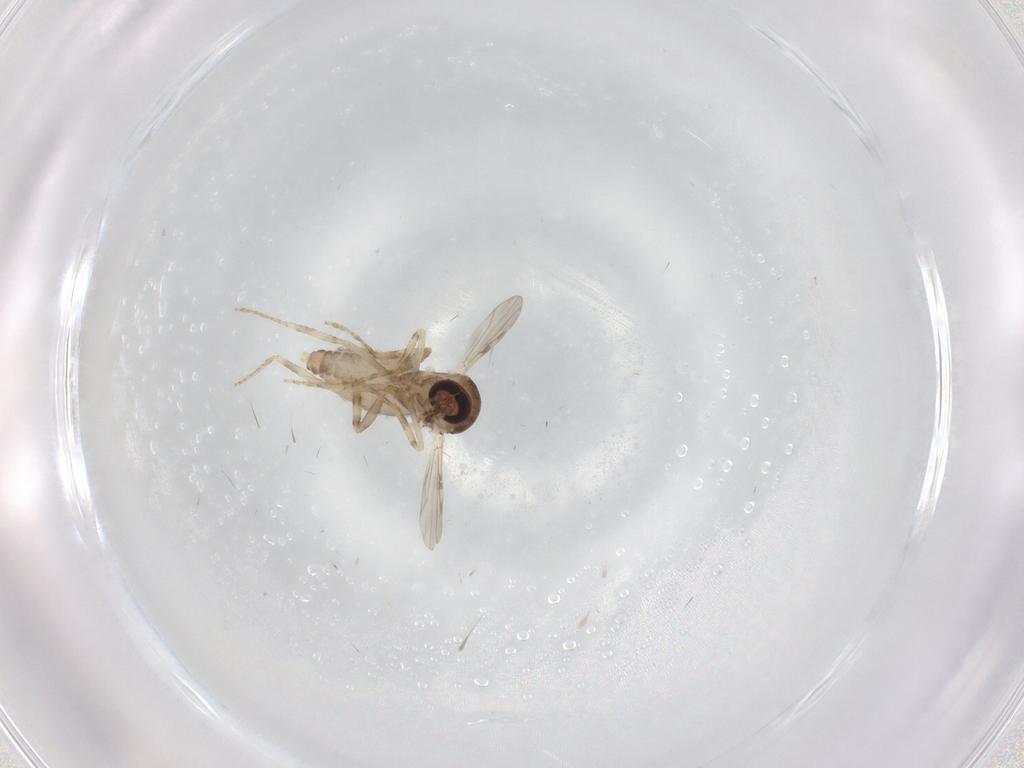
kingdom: Animalia
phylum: Arthropoda
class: Insecta
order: Diptera
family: Ceratopogonidae
